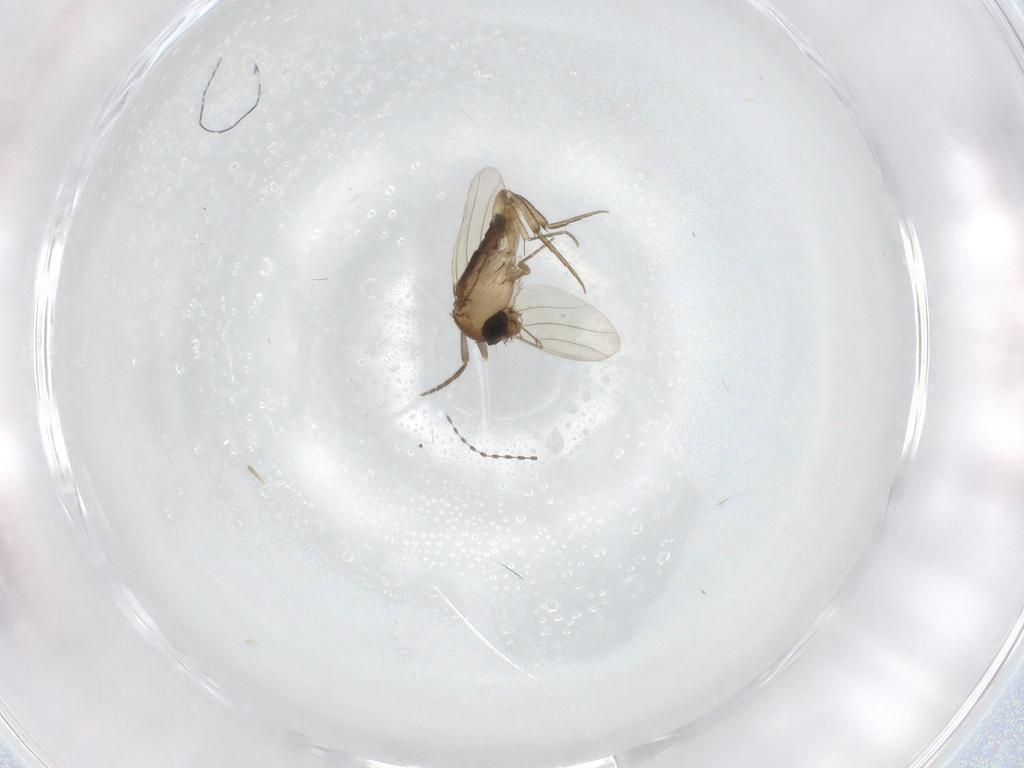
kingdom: Animalia
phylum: Arthropoda
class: Insecta
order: Diptera
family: Phoridae
